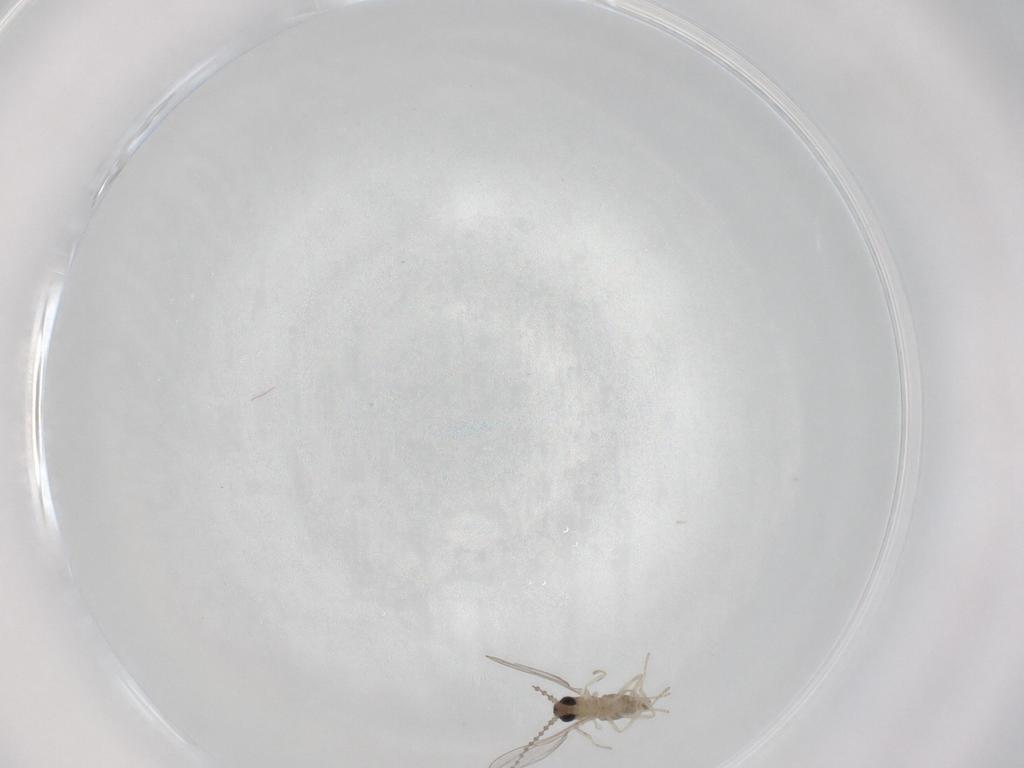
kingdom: Animalia
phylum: Arthropoda
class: Insecta
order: Diptera
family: Cecidomyiidae
